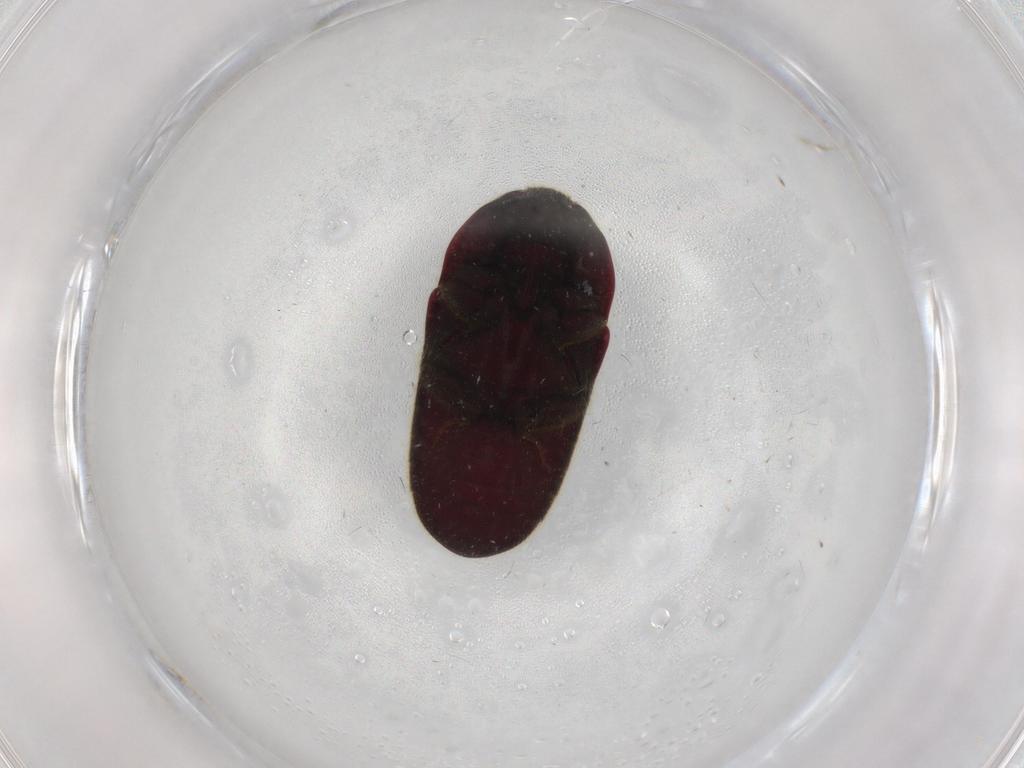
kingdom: Animalia
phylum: Arthropoda
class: Insecta
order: Coleoptera
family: Throscidae
